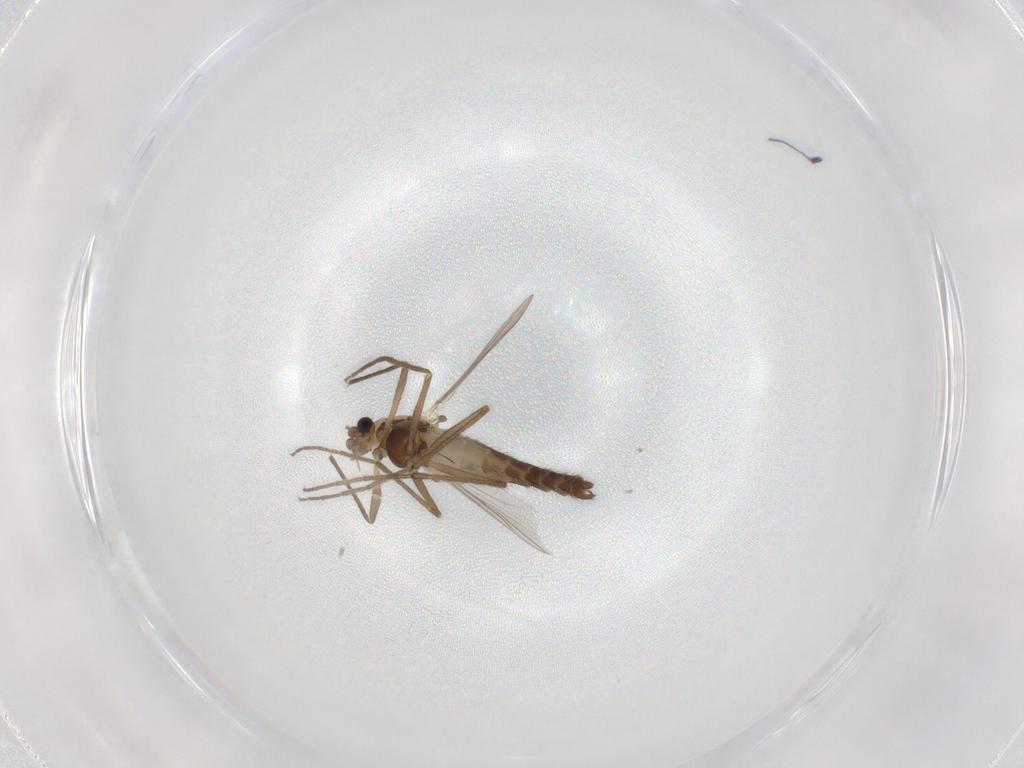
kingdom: Animalia
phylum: Arthropoda
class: Insecta
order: Diptera
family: Chironomidae
